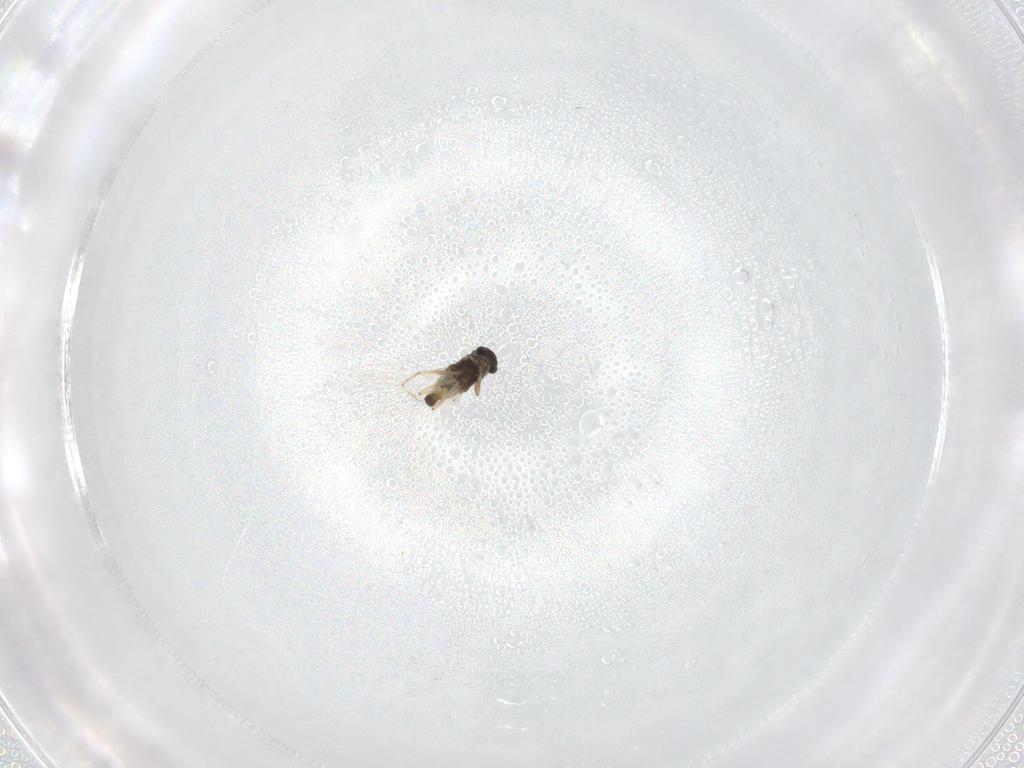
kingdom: Animalia
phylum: Arthropoda
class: Insecta
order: Diptera
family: Chironomidae
